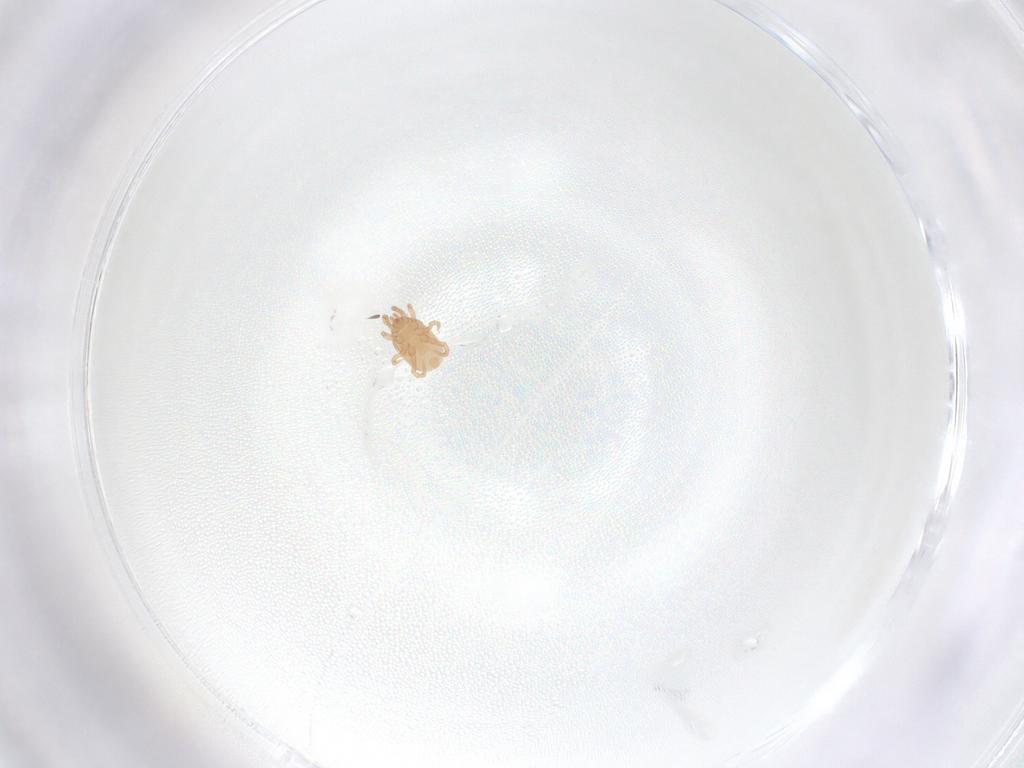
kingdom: Animalia
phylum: Arthropoda
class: Arachnida
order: Mesostigmata
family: Melicharidae
